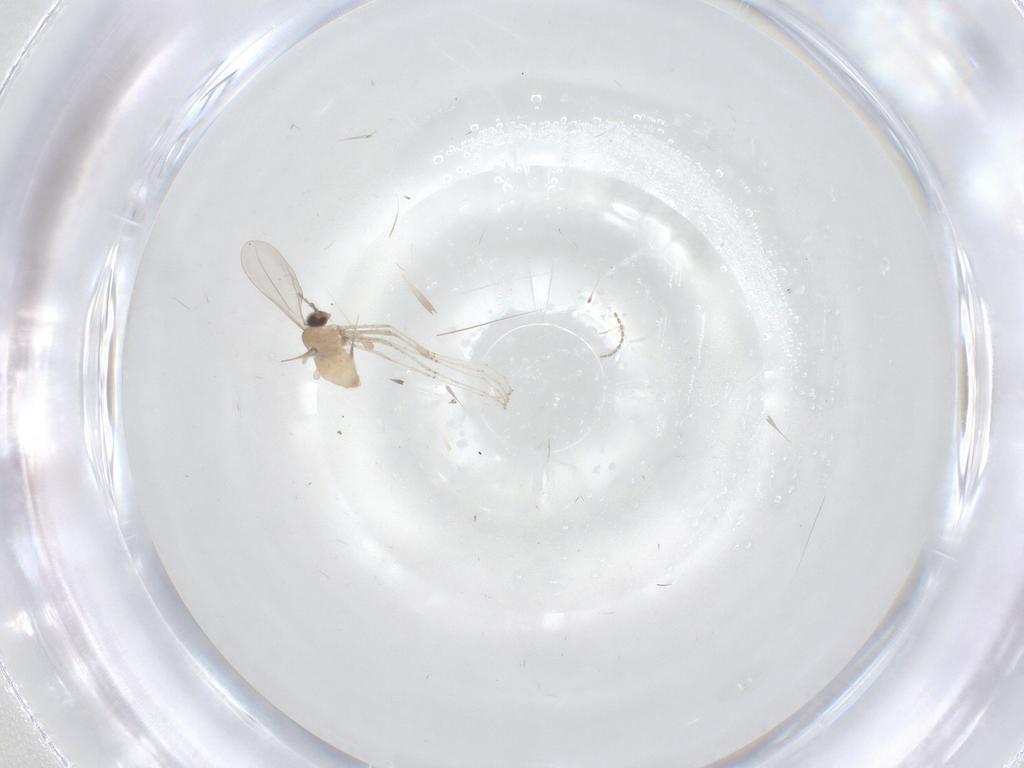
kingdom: Animalia
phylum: Arthropoda
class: Insecta
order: Diptera
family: Cecidomyiidae
